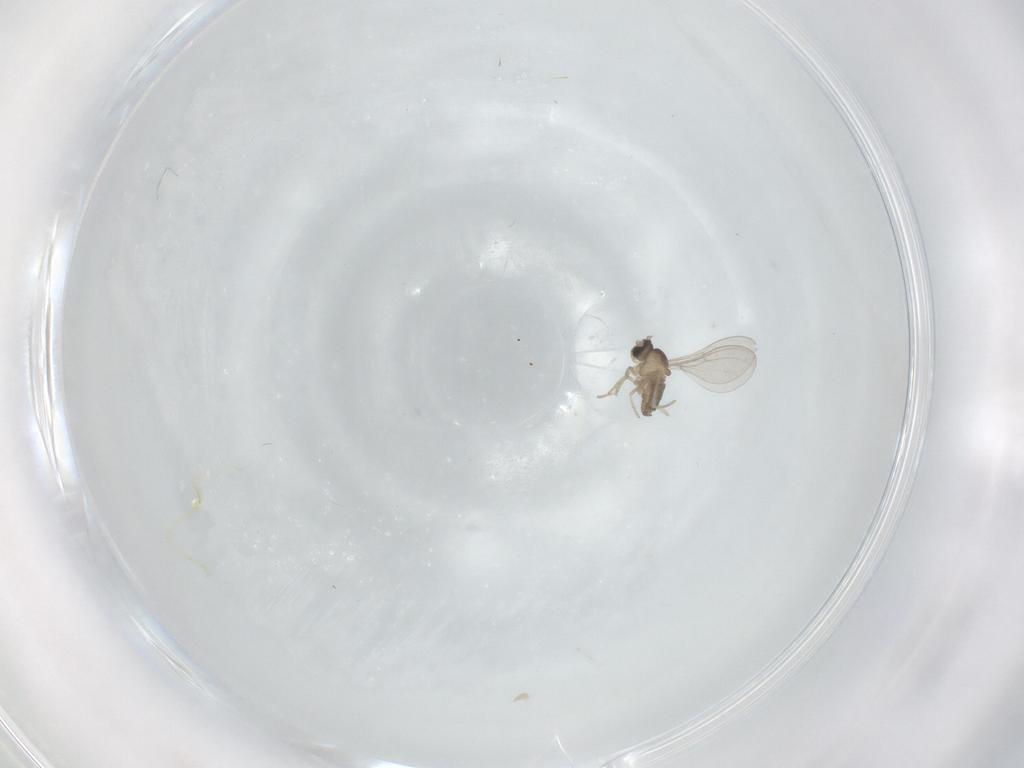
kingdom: Animalia
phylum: Arthropoda
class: Insecta
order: Diptera
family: Cecidomyiidae
